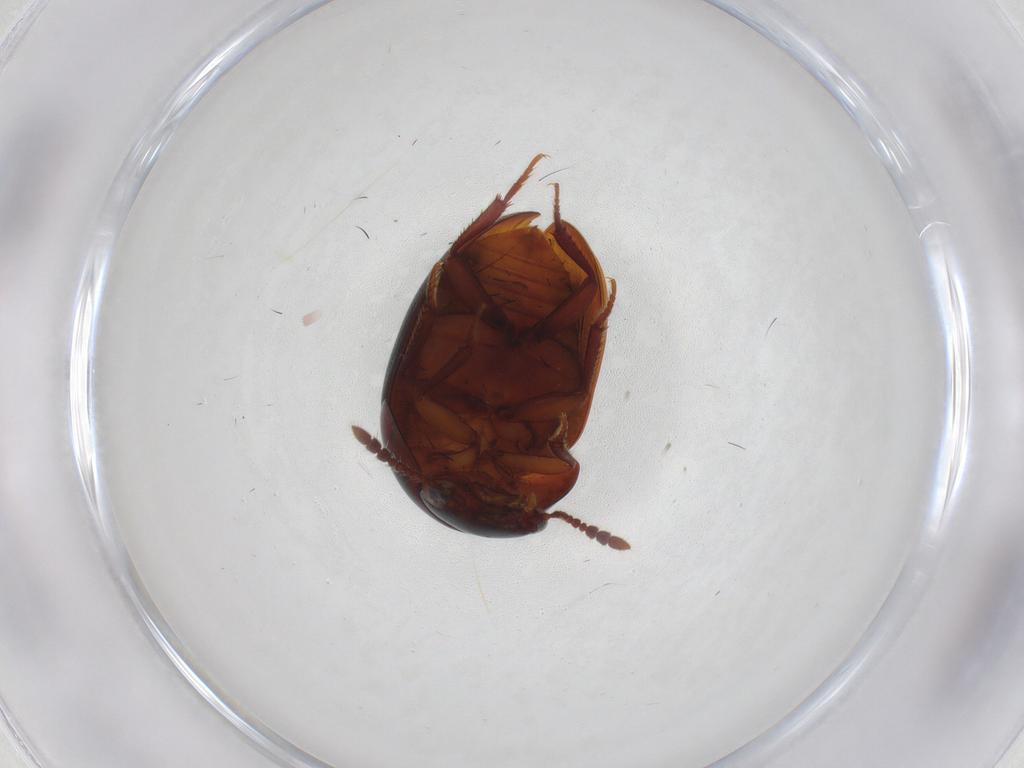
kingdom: Animalia
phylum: Arthropoda
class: Insecta
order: Coleoptera
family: Leiodidae
